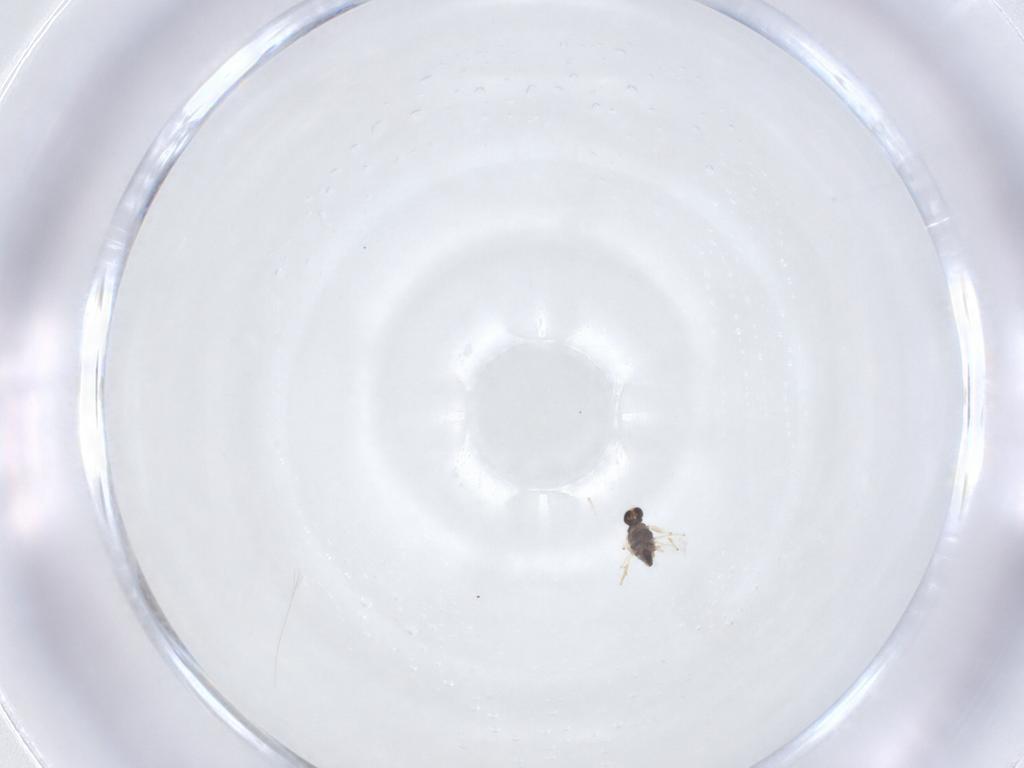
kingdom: Animalia
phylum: Arthropoda
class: Insecta
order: Diptera
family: Chironomidae
